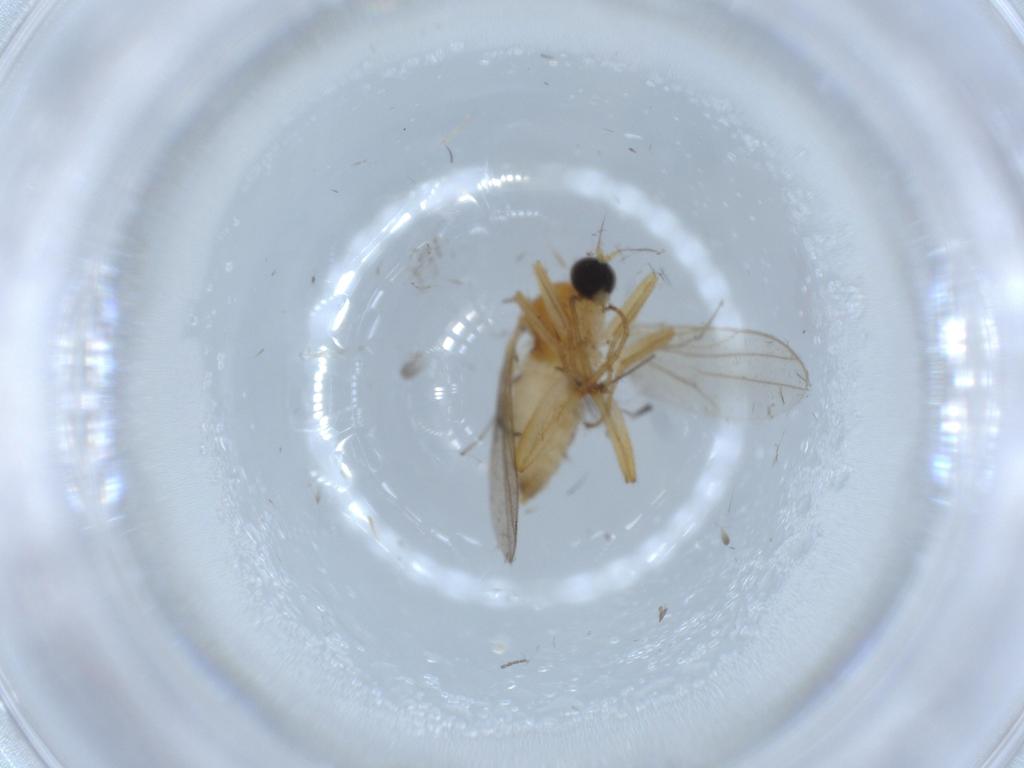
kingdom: Animalia
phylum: Arthropoda
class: Insecta
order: Diptera
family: Hybotidae
